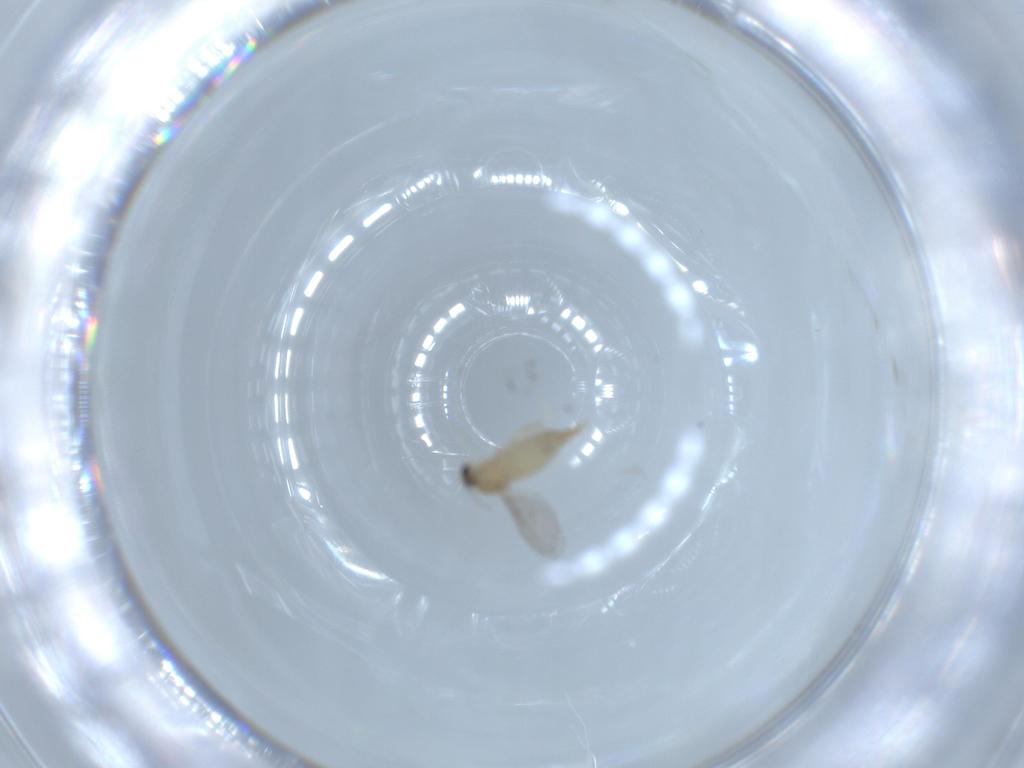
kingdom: Animalia
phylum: Arthropoda
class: Insecta
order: Diptera
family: Cecidomyiidae
